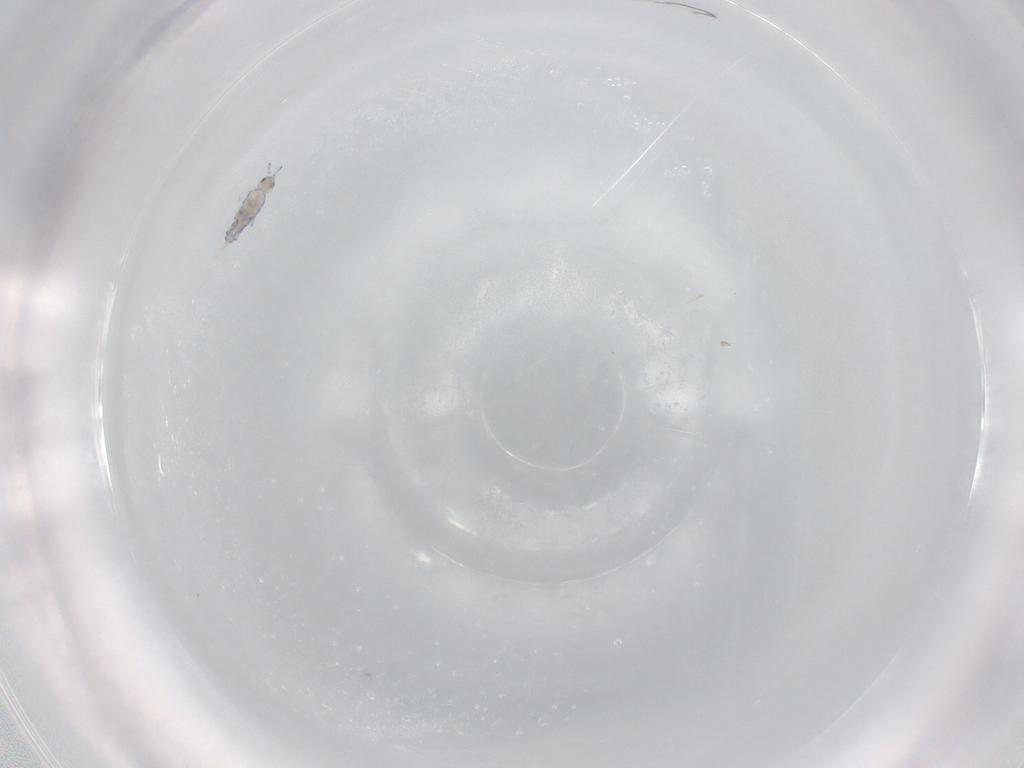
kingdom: Animalia
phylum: Arthropoda
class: Collembola
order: Entomobryomorpha
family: Entomobryidae
